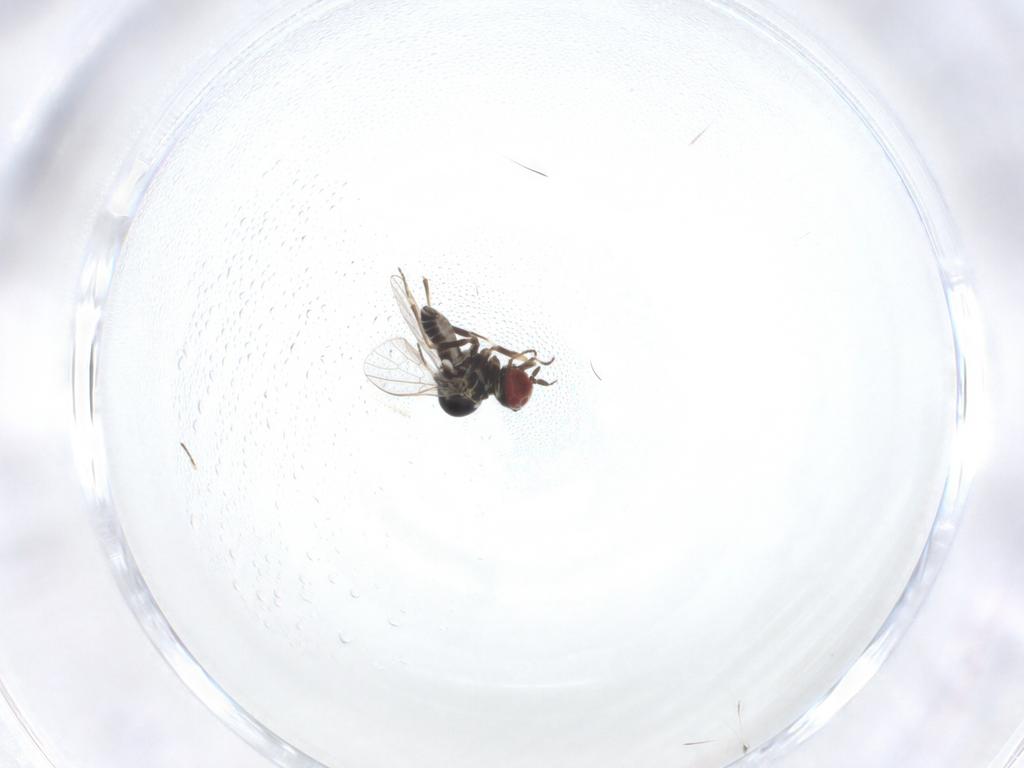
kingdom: Animalia
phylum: Arthropoda
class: Insecta
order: Diptera
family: Mythicomyiidae
